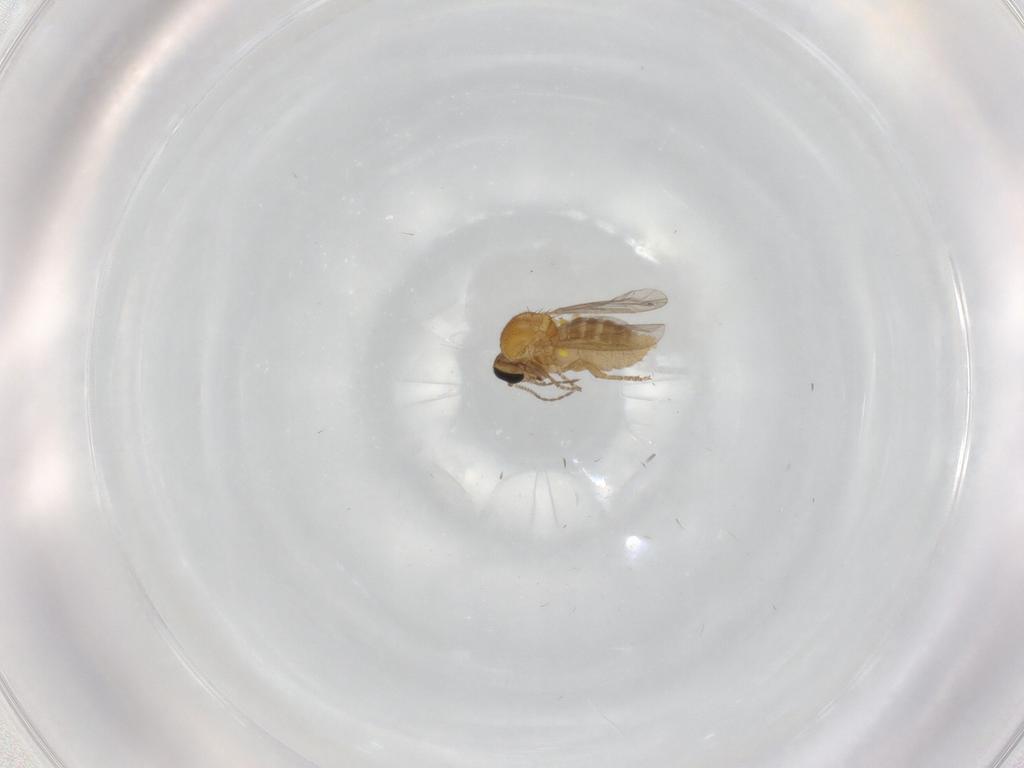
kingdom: Animalia
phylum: Arthropoda
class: Insecta
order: Diptera
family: Ceratopogonidae
